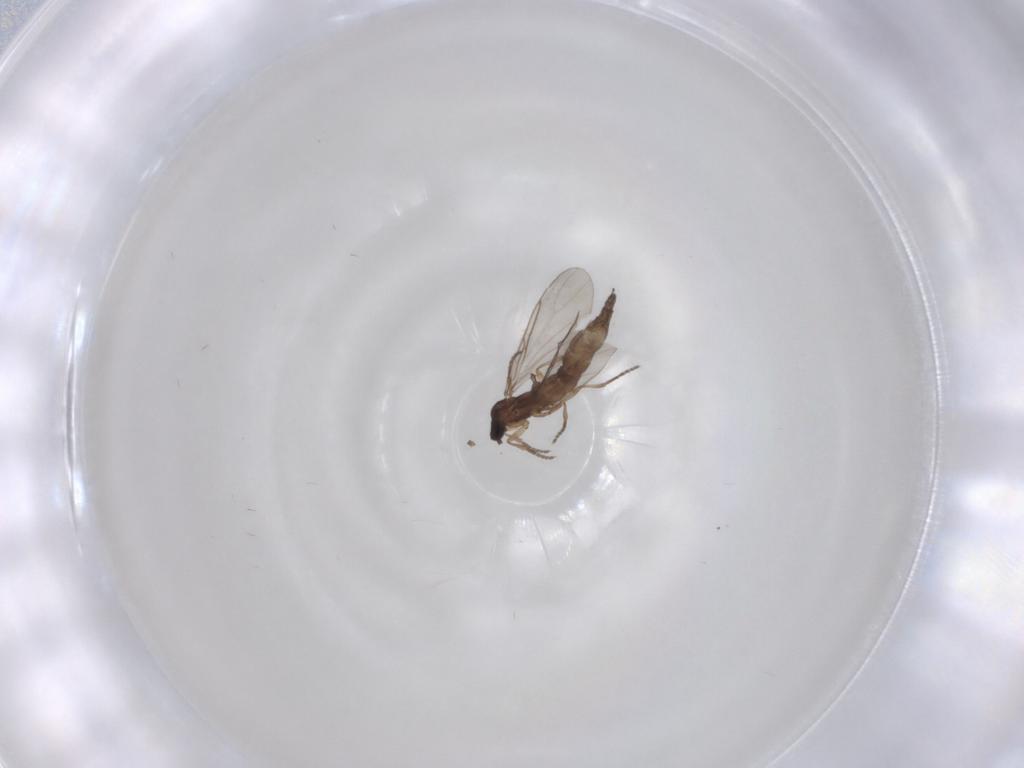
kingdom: Animalia
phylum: Arthropoda
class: Insecta
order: Diptera
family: Sciaridae
